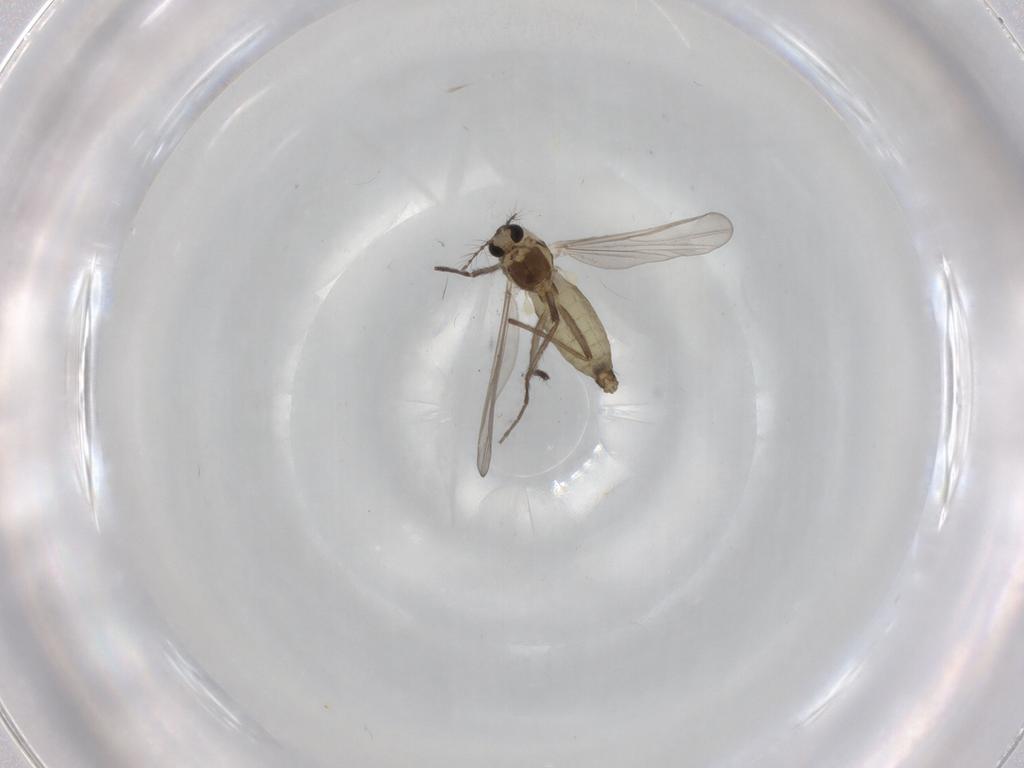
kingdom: Animalia
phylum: Arthropoda
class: Insecta
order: Diptera
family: Chironomidae
